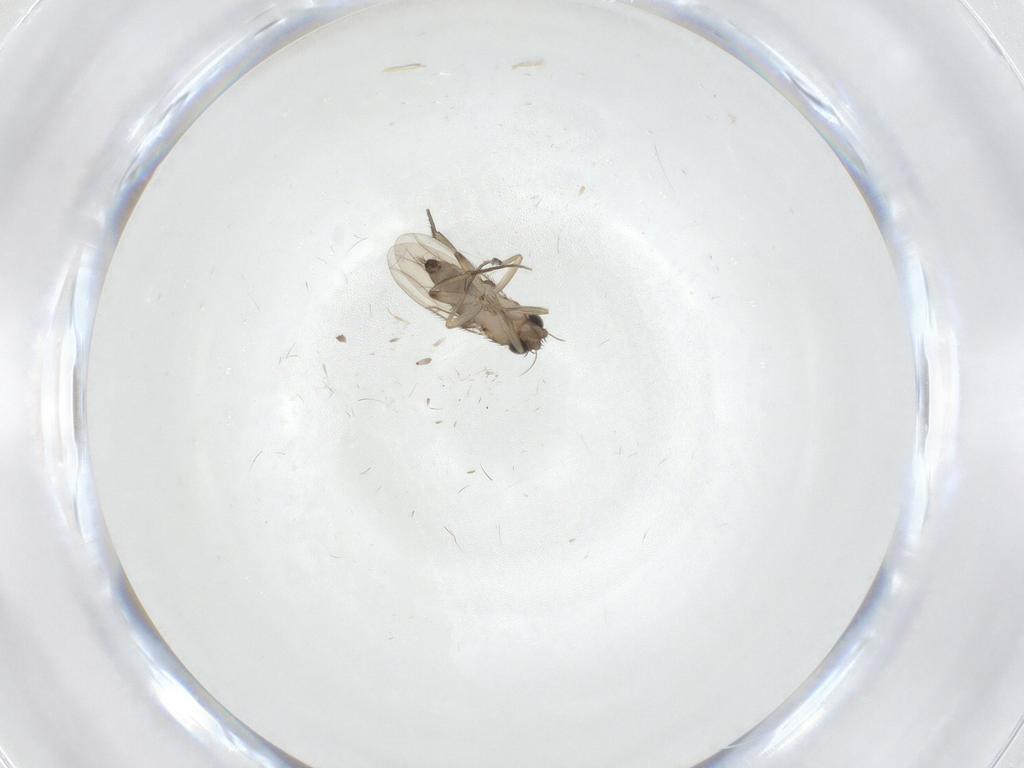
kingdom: Animalia
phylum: Arthropoda
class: Insecta
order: Diptera
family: Phoridae
